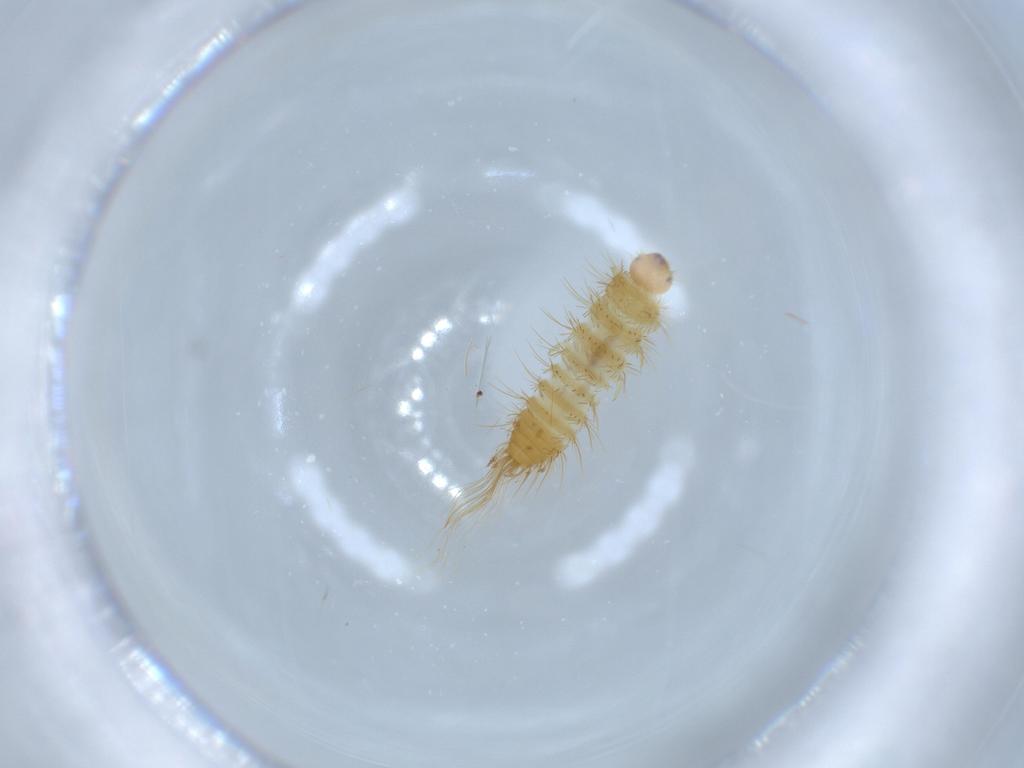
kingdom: Animalia
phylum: Arthropoda
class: Insecta
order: Coleoptera
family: Dermestidae
